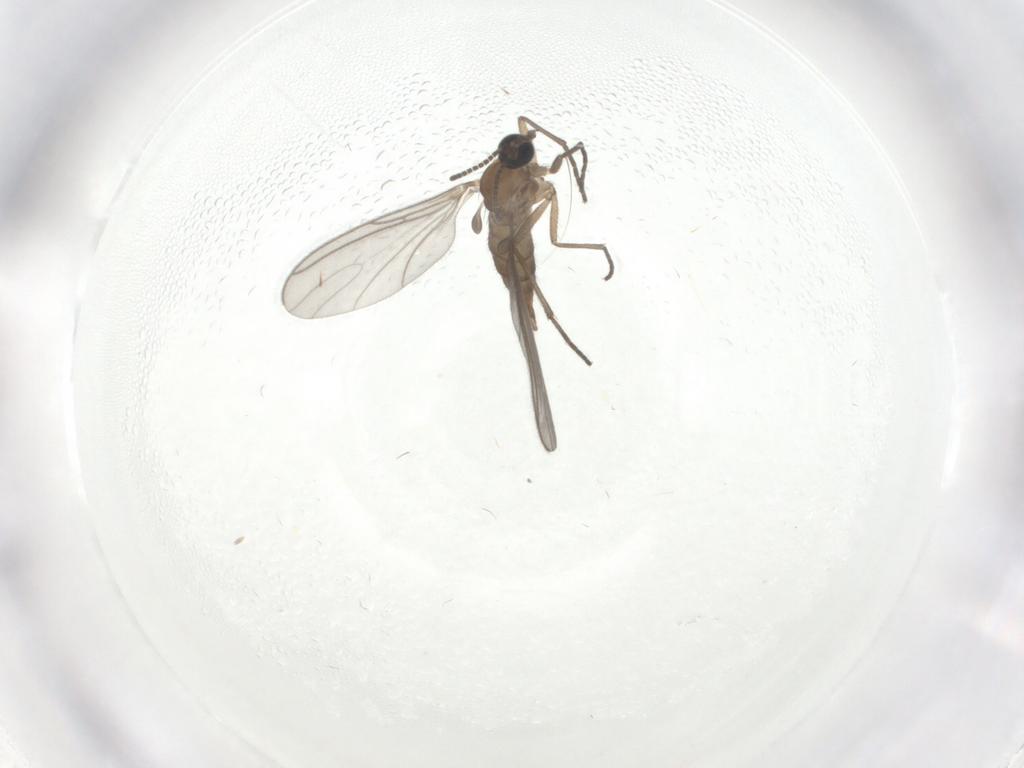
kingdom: Animalia
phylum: Arthropoda
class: Insecta
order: Diptera
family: Sciaridae
